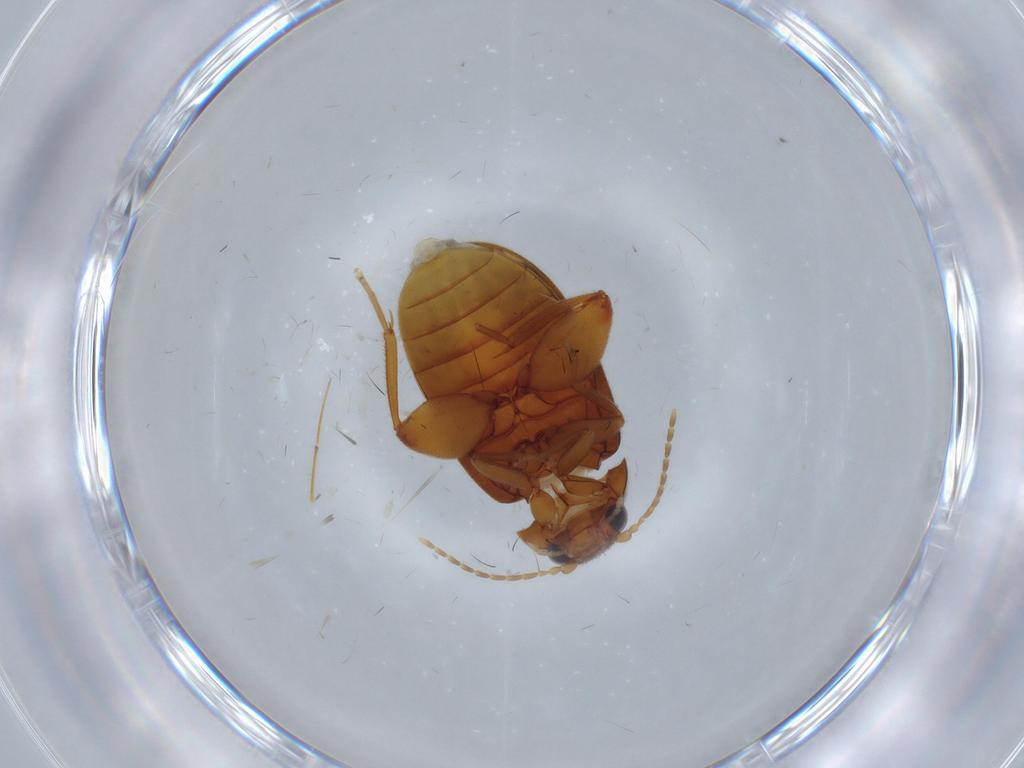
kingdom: Animalia
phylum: Arthropoda
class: Insecta
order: Coleoptera
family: Scirtidae
